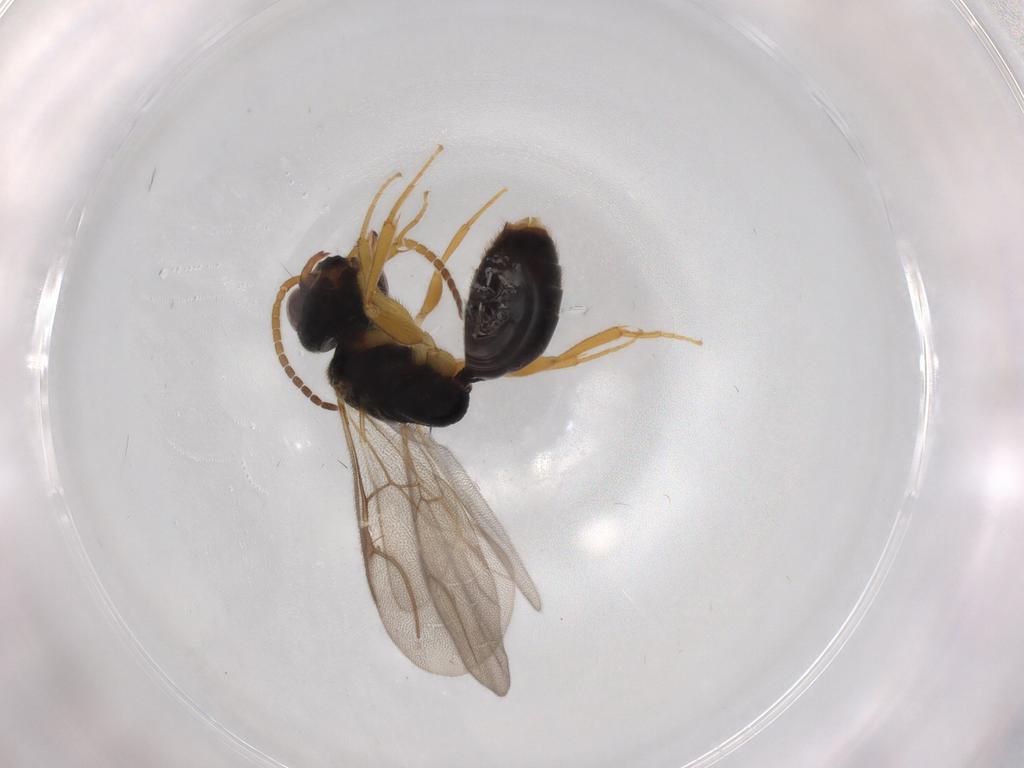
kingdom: Animalia
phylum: Arthropoda
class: Insecta
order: Hymenoptera
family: Bethylidae
